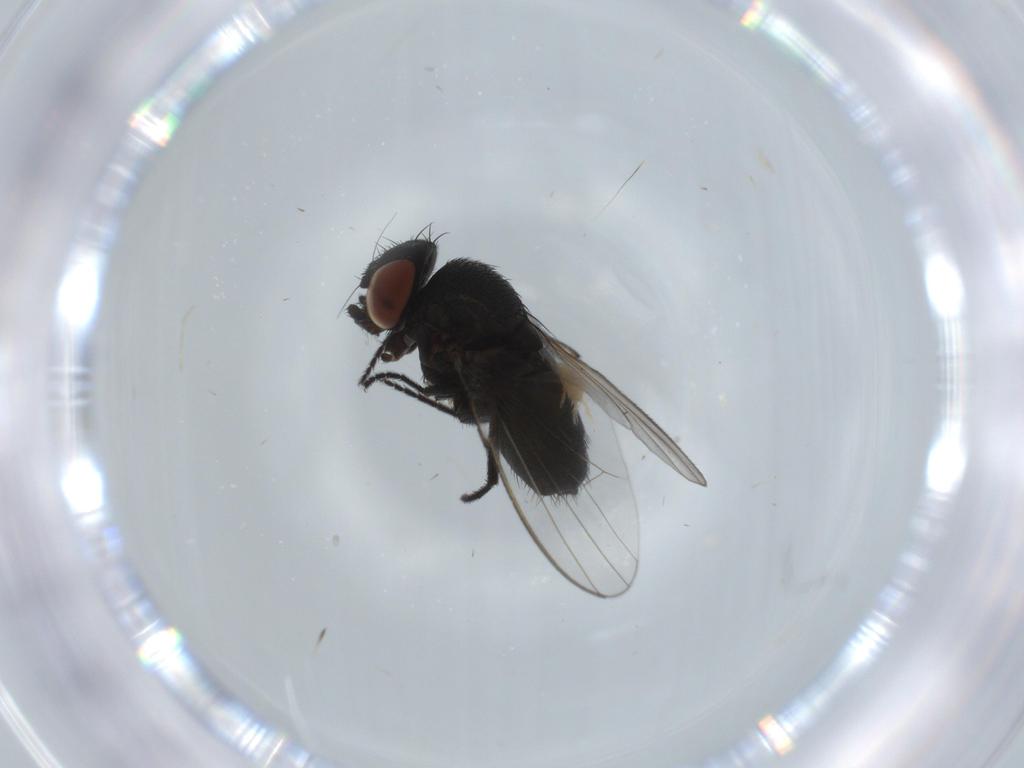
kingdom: Animalia
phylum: Arthropoda
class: Insecta
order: Diptera
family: Milichiidae
